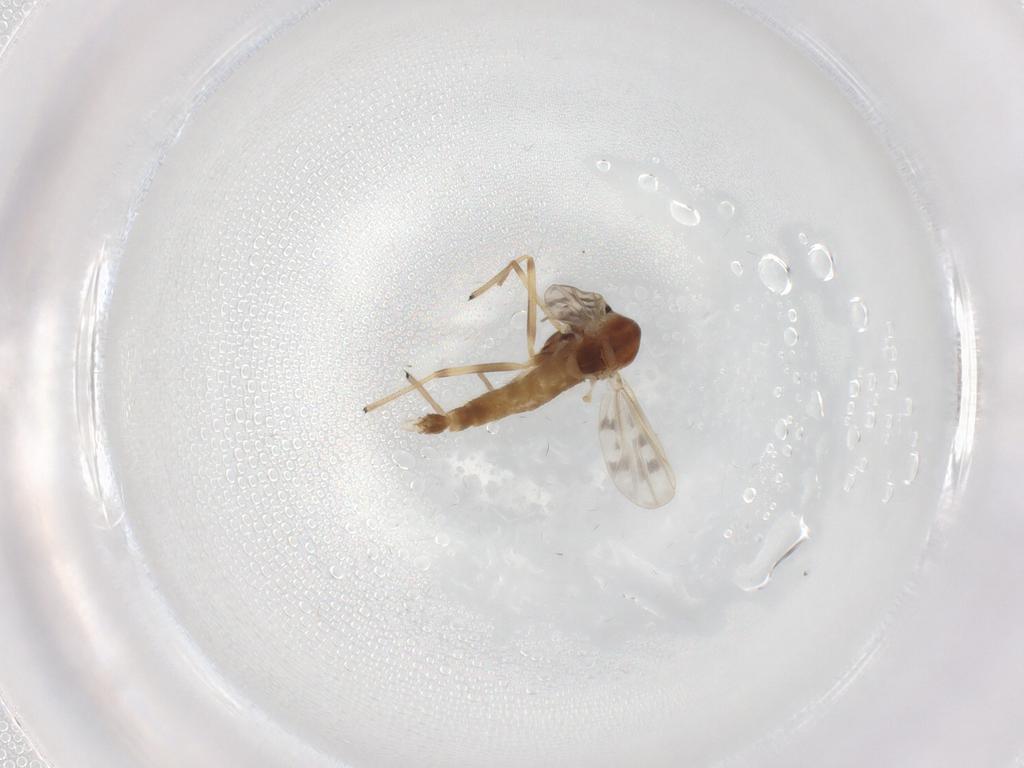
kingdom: Animalia
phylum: Arthropoda
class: Insecta
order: Diptera
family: Chironomidae
